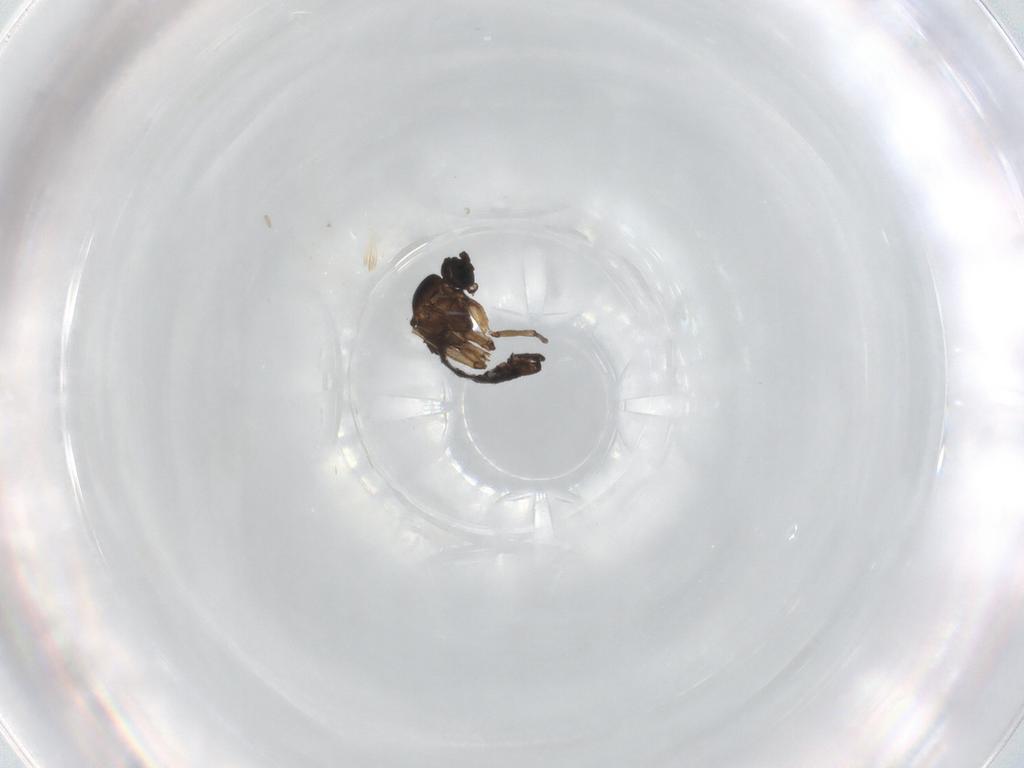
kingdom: Animalia
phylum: Arthropoda
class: Insecta
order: Diptera
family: Sciaridae
